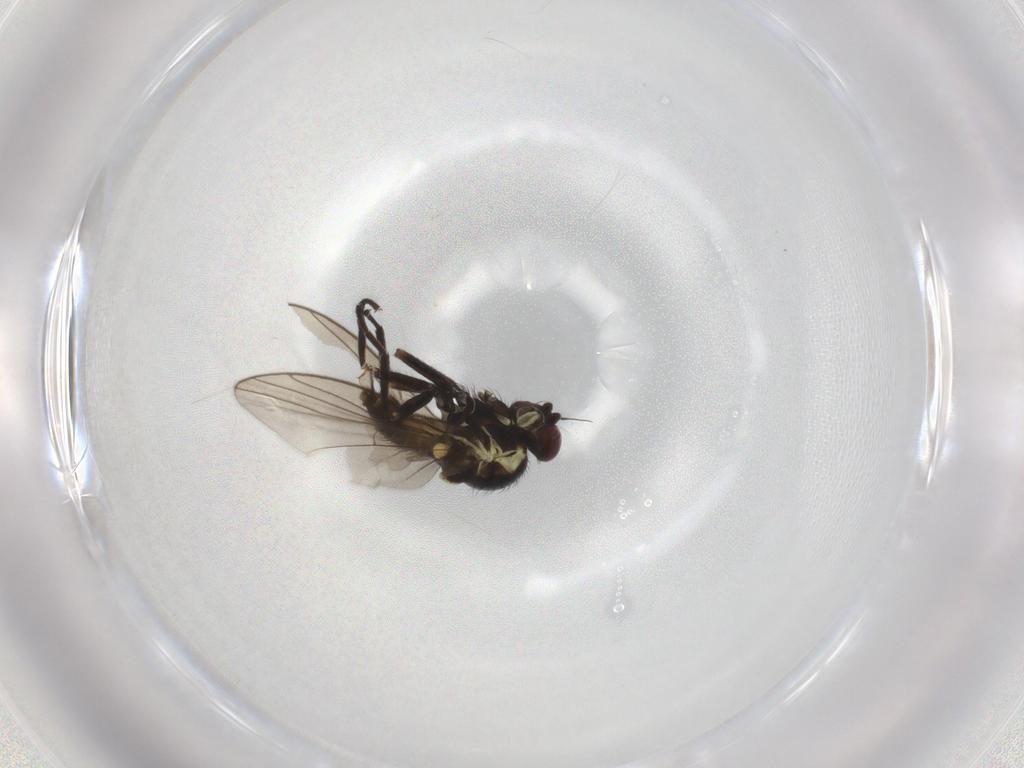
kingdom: Animalia
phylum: Arthropoda
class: Insecta
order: Diptera
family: Agromyzidae
